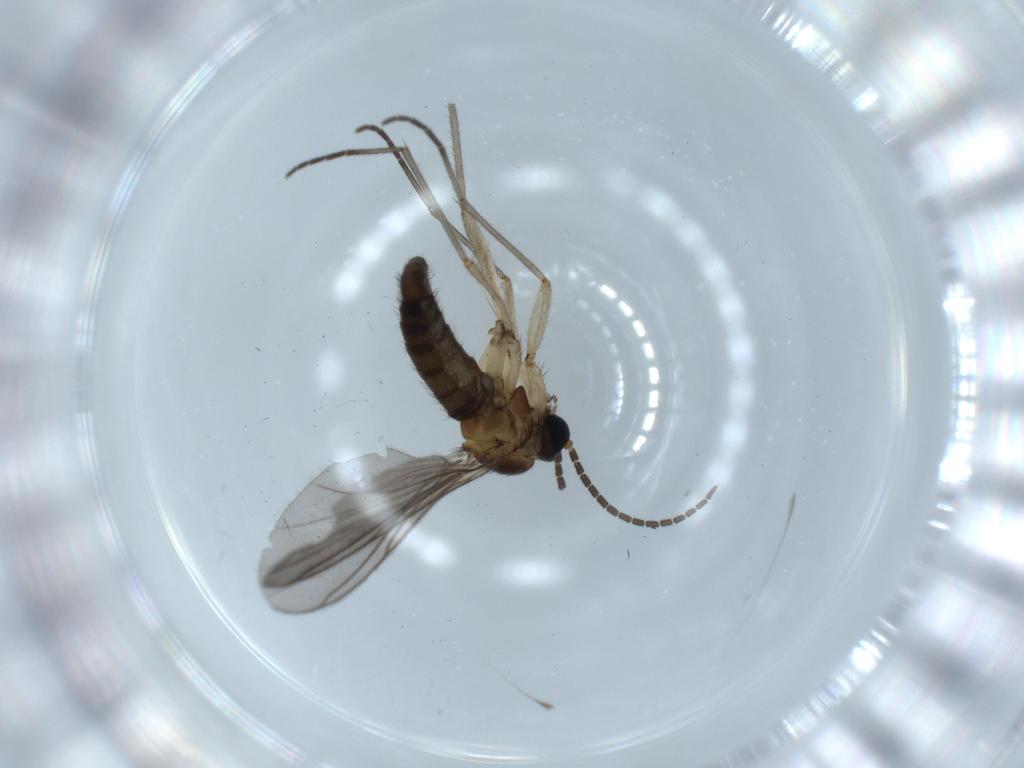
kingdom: Animalia
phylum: Arthropoda
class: Insecta
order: Diptera
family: Sciaridae
